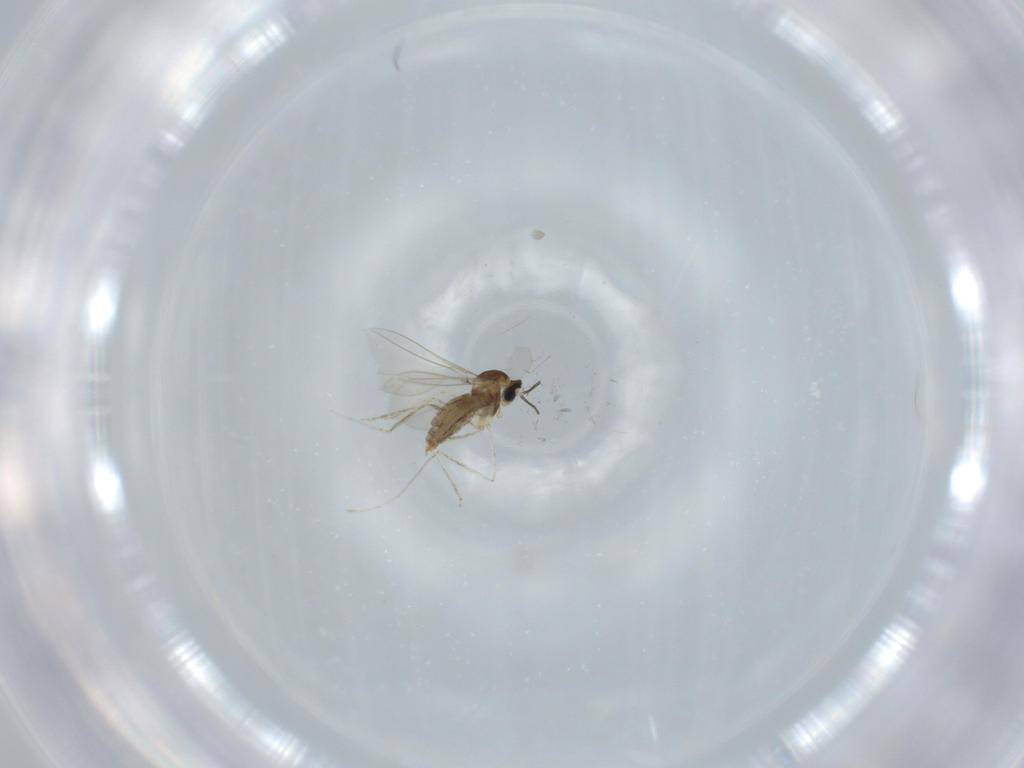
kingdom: Animalia
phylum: Arthropoda
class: Insecta
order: Diptera
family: Cecidomyiidae
